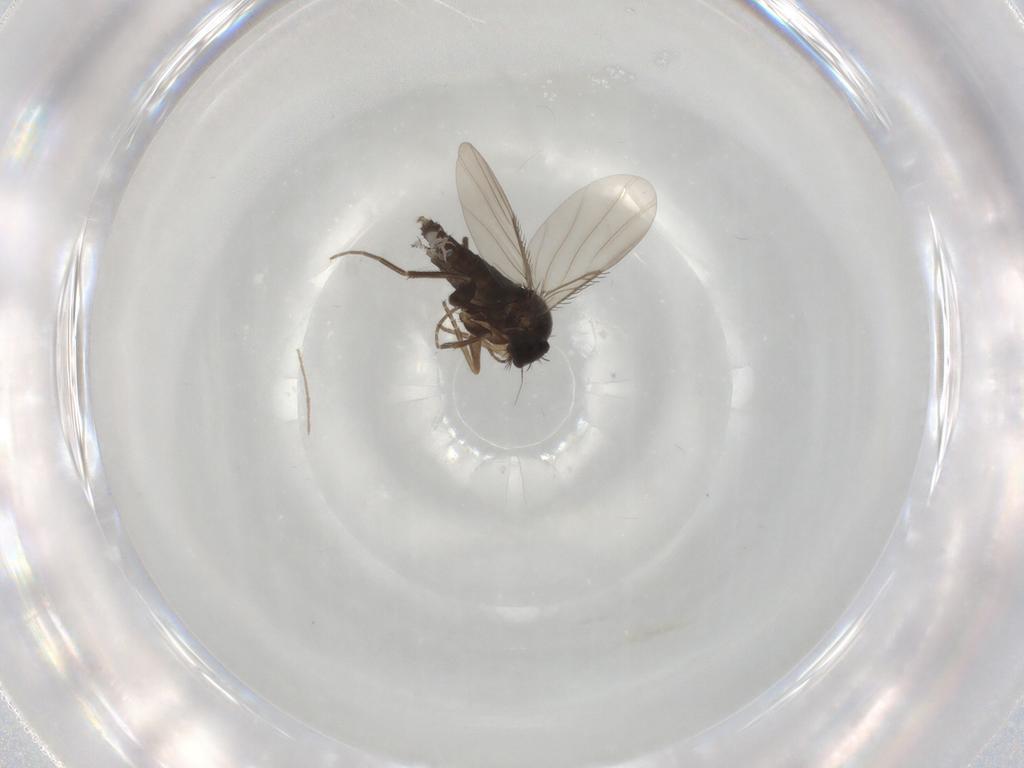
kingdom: Animalia
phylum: Arthropoda
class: Insecta
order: Diptera
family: Phoridae
